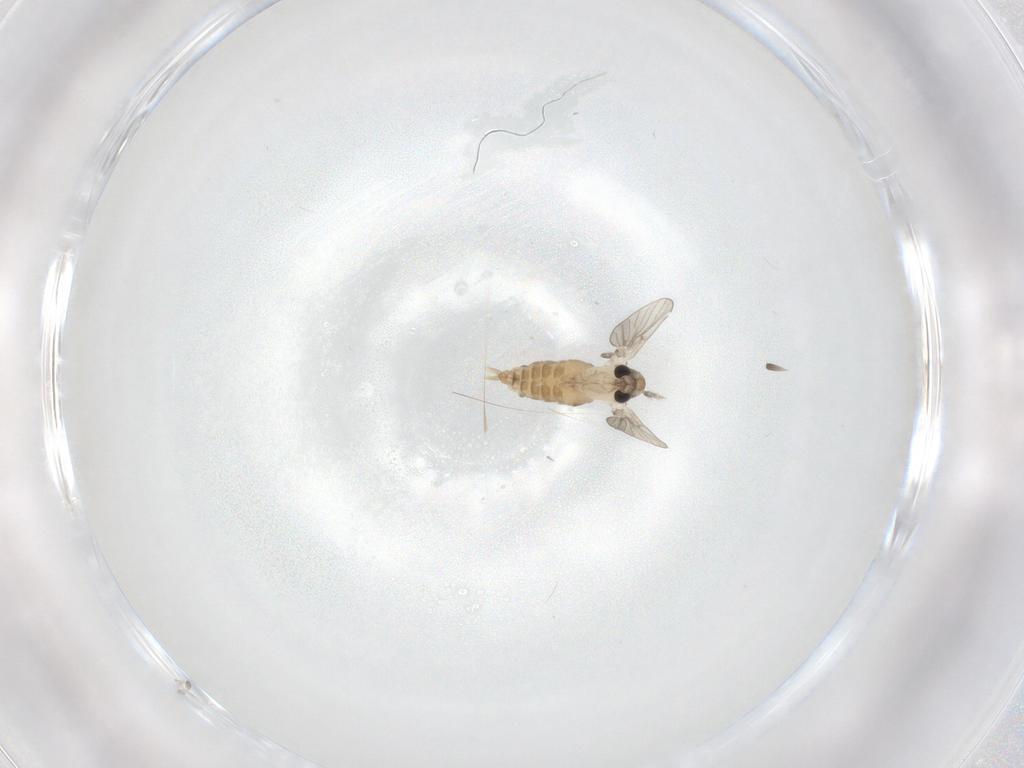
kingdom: Animalia
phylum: Arthropoda
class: Insecta
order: Diptera
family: Psychodidae
